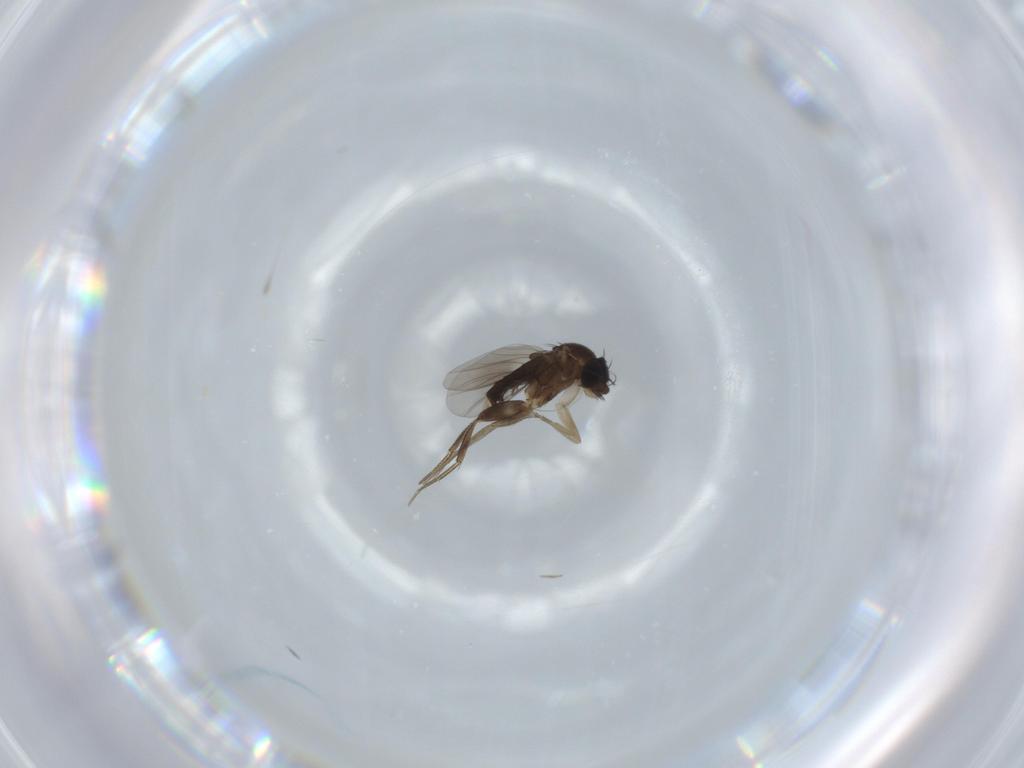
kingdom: Animalia
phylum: Arthropoda
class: Insecta
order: Diptera
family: Phoridae
